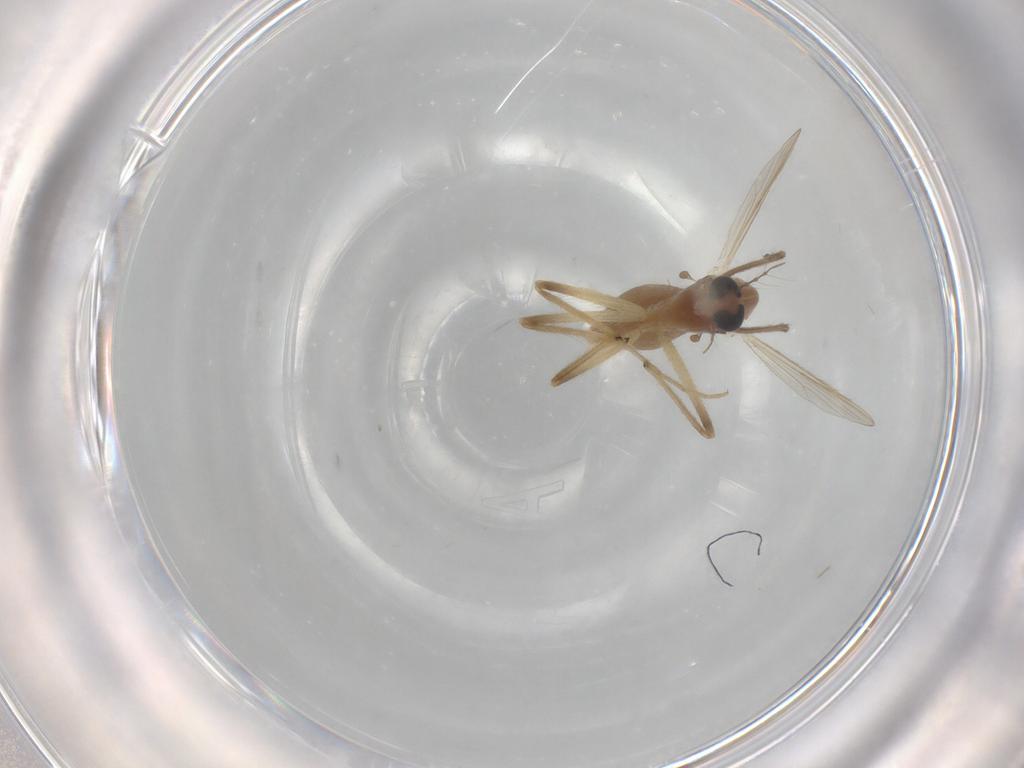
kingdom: Animalia
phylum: Arthropoda
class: Insecta
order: Diptera
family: Chironomidae
